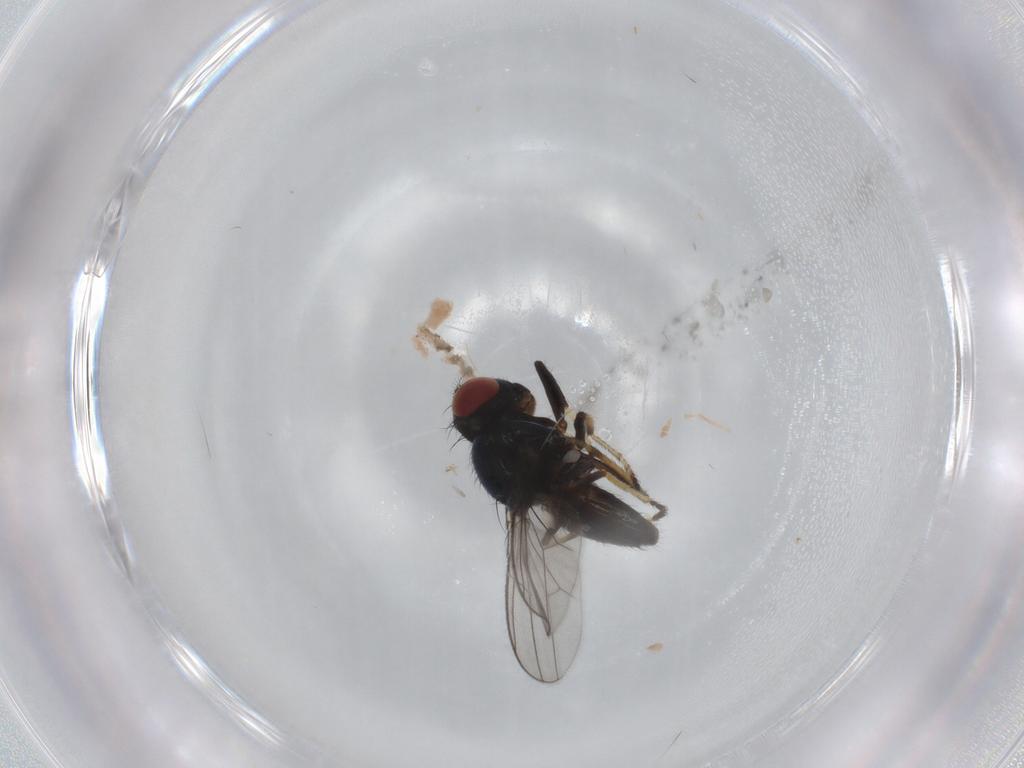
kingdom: Animalia
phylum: Arthropoda
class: Insecta
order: Diptera
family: Ephydridae
